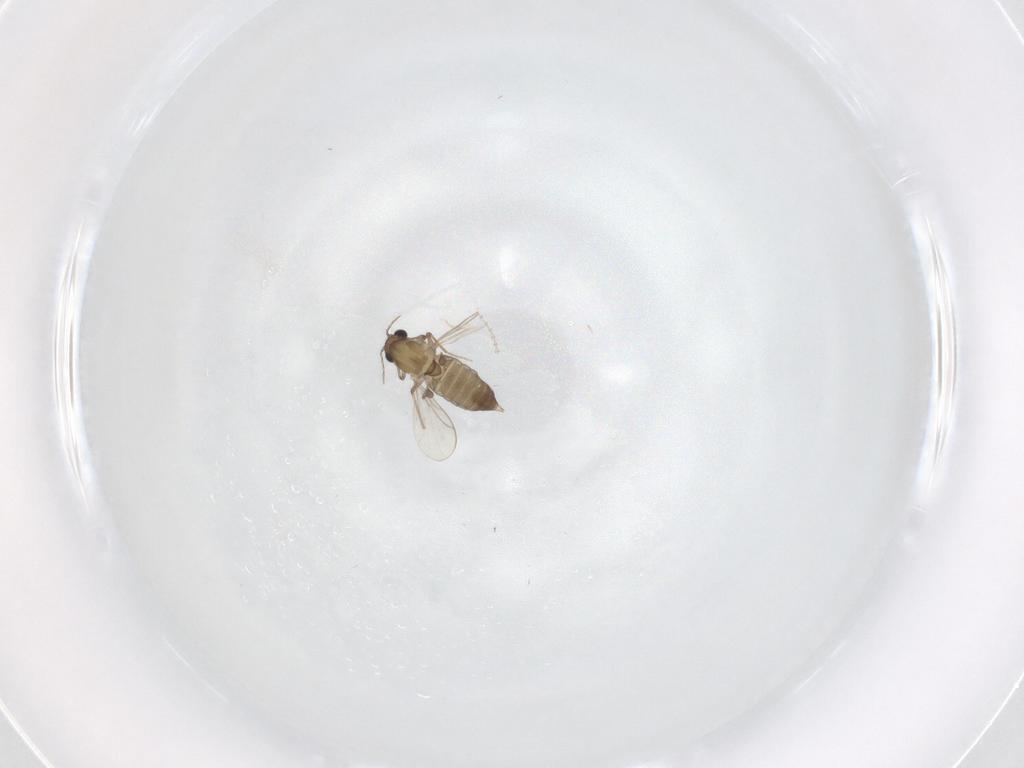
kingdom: Animalia
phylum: Arthropoda
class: Insecta
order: Diptera
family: Chironomidae
